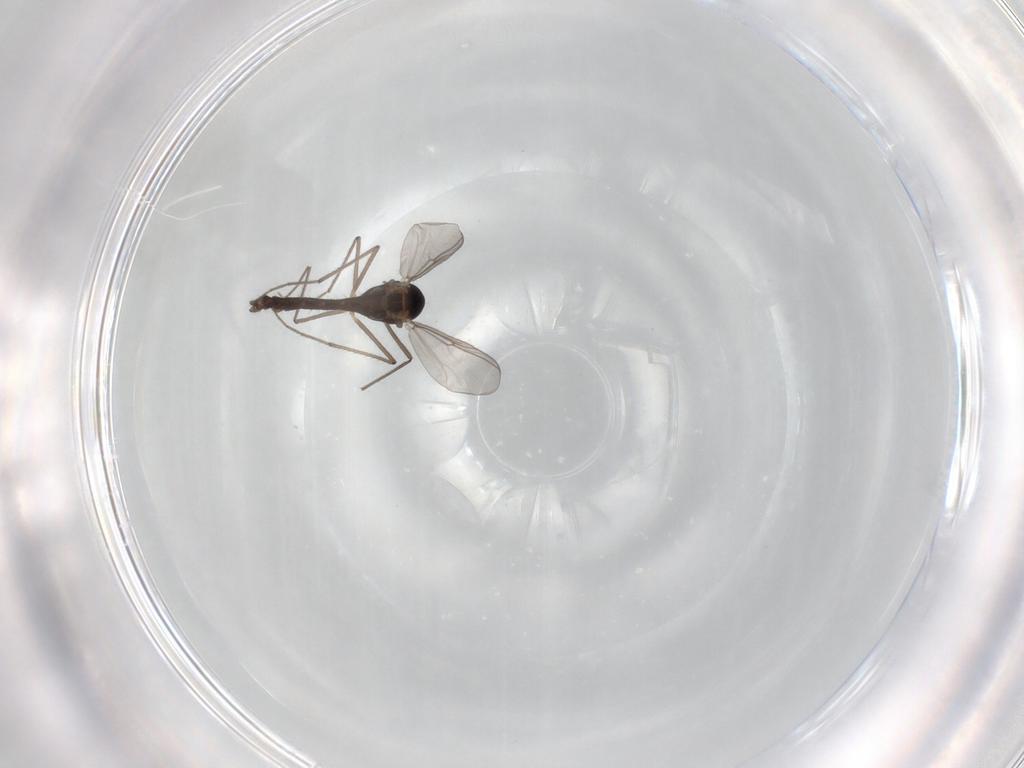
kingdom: Animalia
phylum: Arthropoda
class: Insecta
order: Diptera
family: Chironomidae
